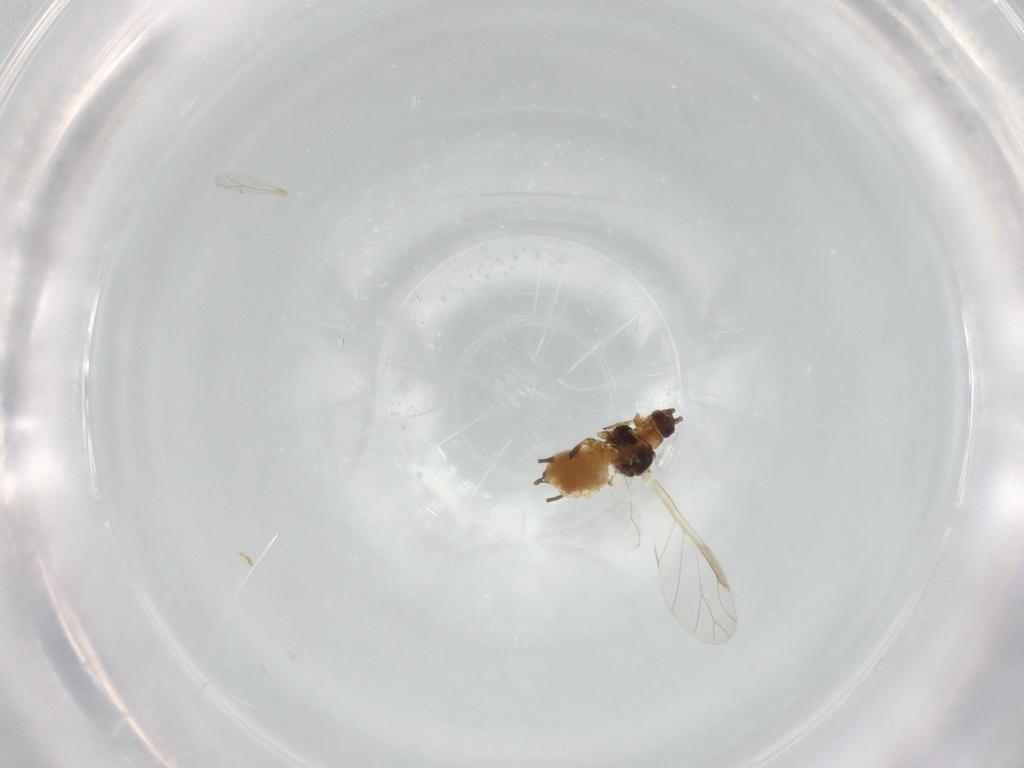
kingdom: Animalia
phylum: Arthropoda
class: Insecta
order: Hemiptera
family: Aphididae
